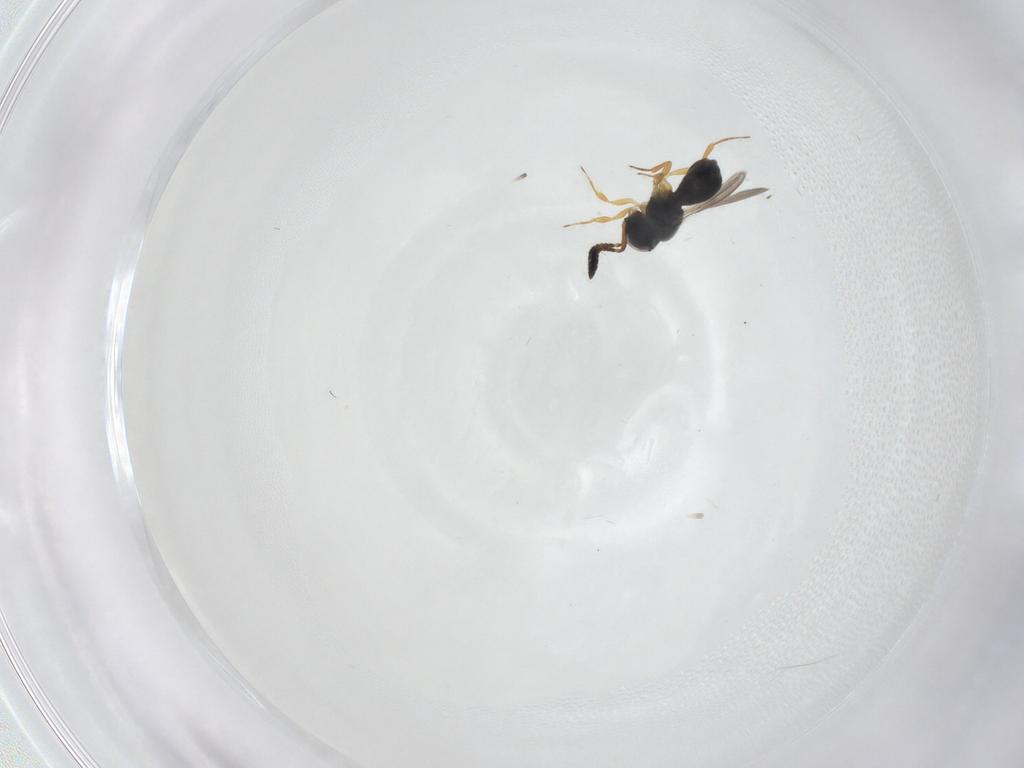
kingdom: Animalia
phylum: Arthropoda
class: Insecta
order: Hymenoptera
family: Scelionidae
